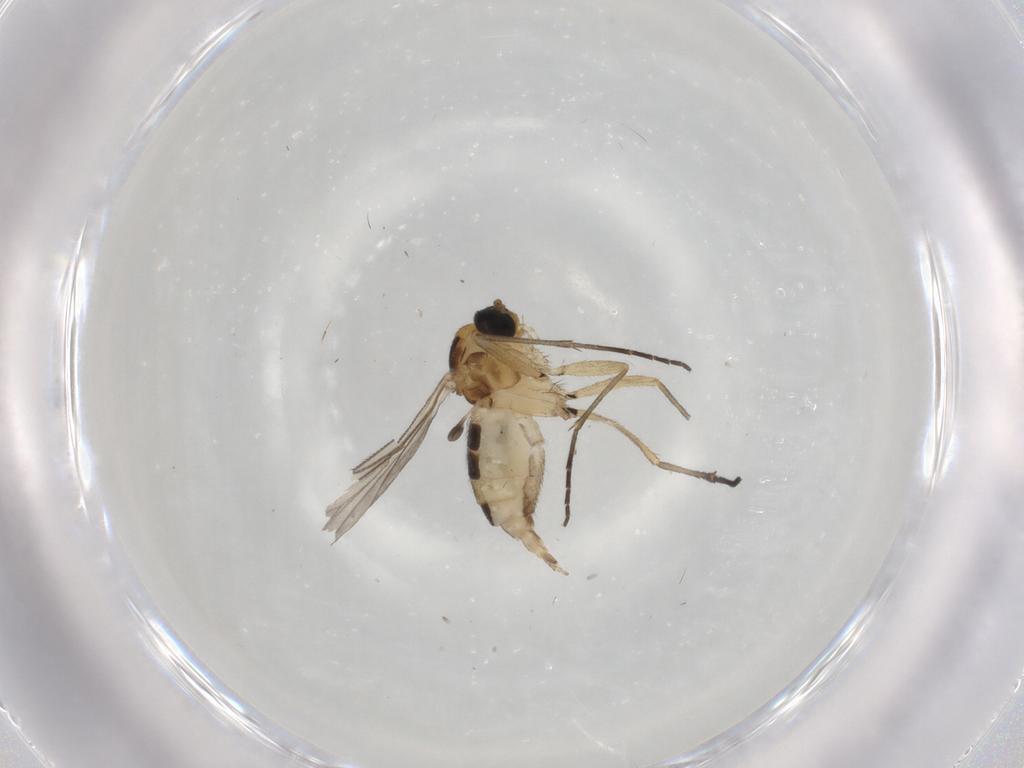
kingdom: Animalia
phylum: Arthropoda
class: Insecta
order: Diptera
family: Sciaridae
